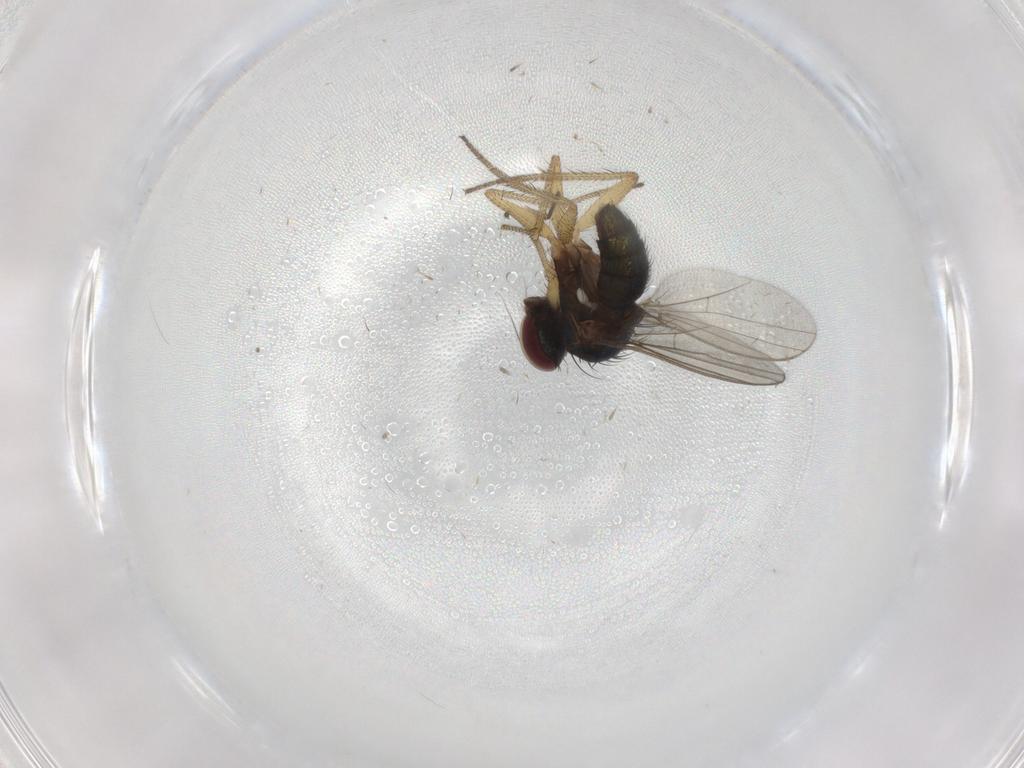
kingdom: Animalia
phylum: Arthropoda
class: Insecta
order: Diptera
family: Dolichopodidae
